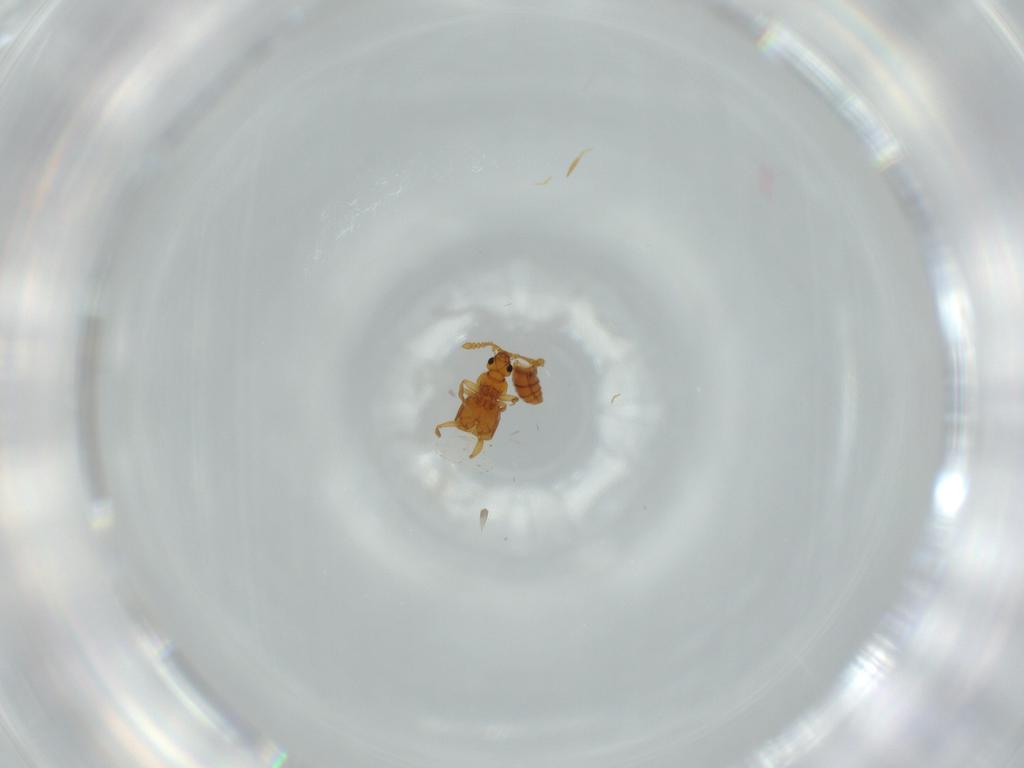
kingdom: Animalia
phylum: Arthropoda
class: Insecta
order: Coleoptera
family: Staphylinidae
